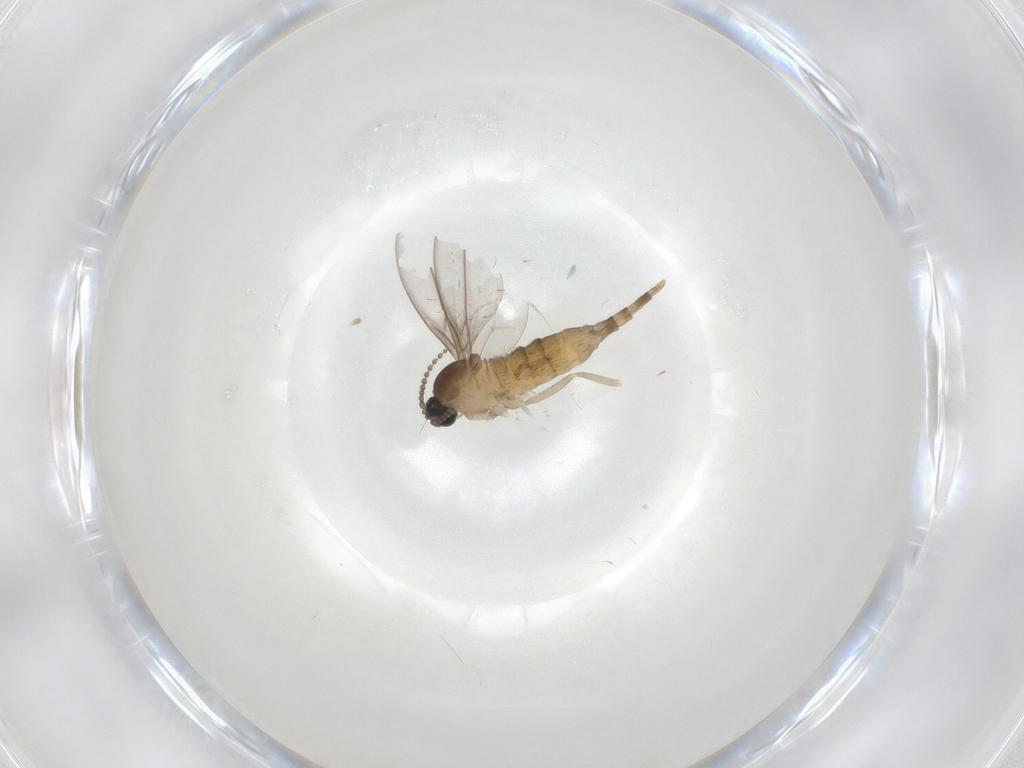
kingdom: Animalia
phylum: Arthropoda
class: Insecta
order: Diptera
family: Cecidomyiidae
